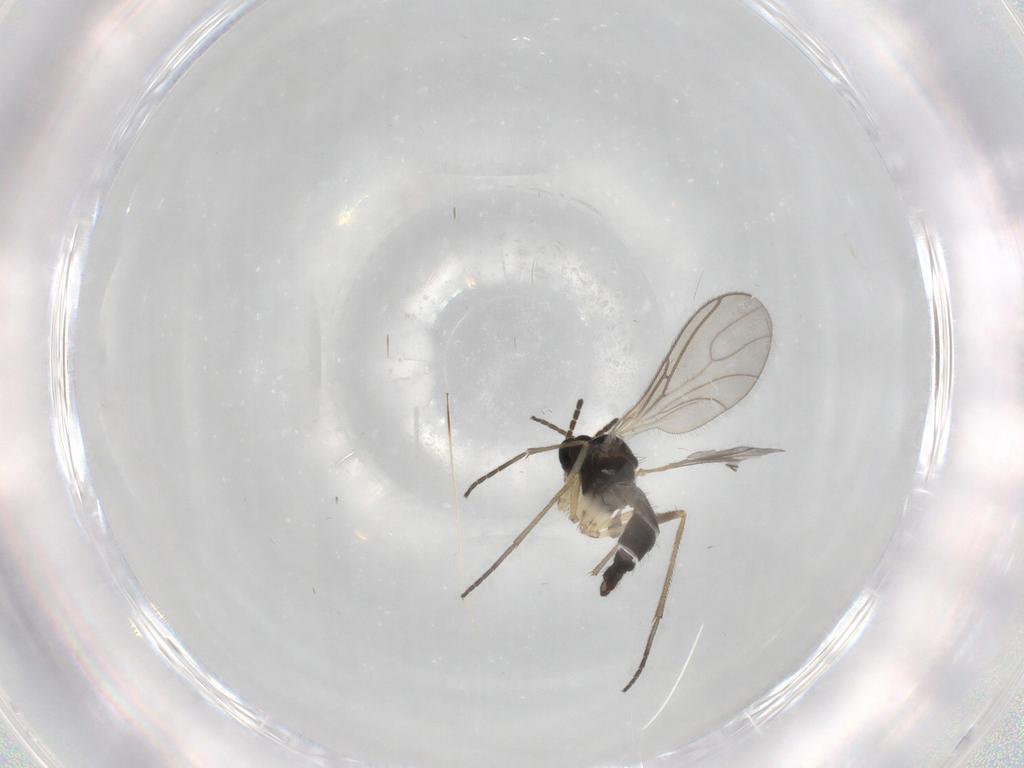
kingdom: Animalia
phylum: Arthropoda
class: Insecta
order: Diptera
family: Sciaridae
